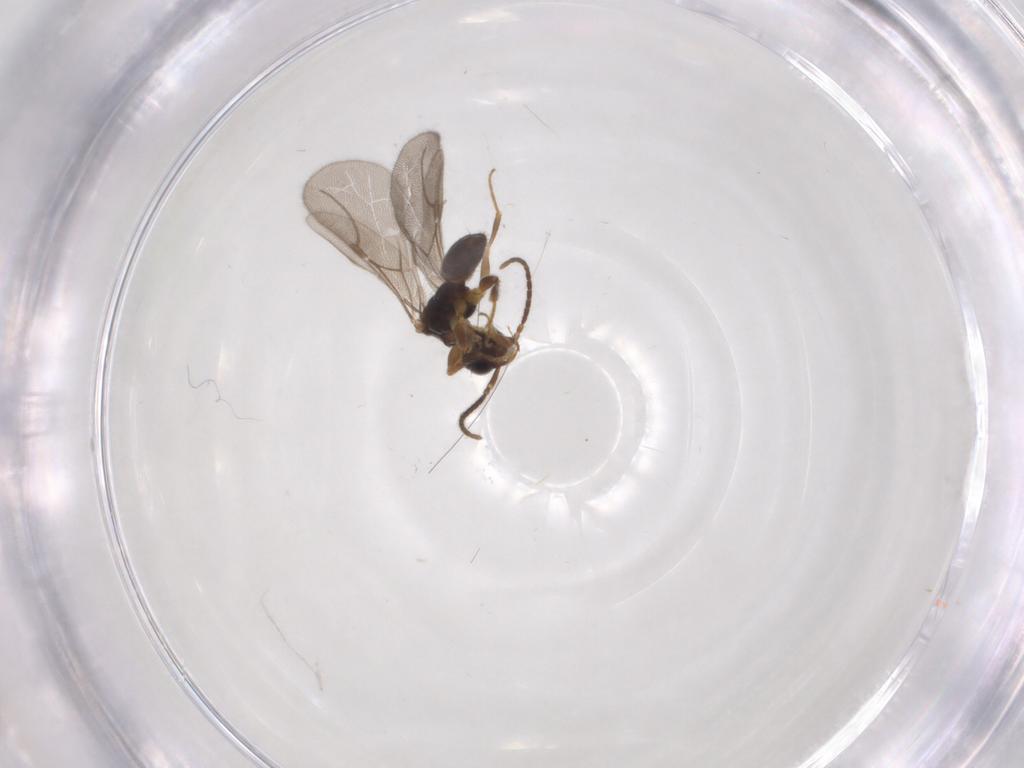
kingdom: Animalia
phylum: Arthropoda
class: Insecta
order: Hymenoptera
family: Bethylidae
